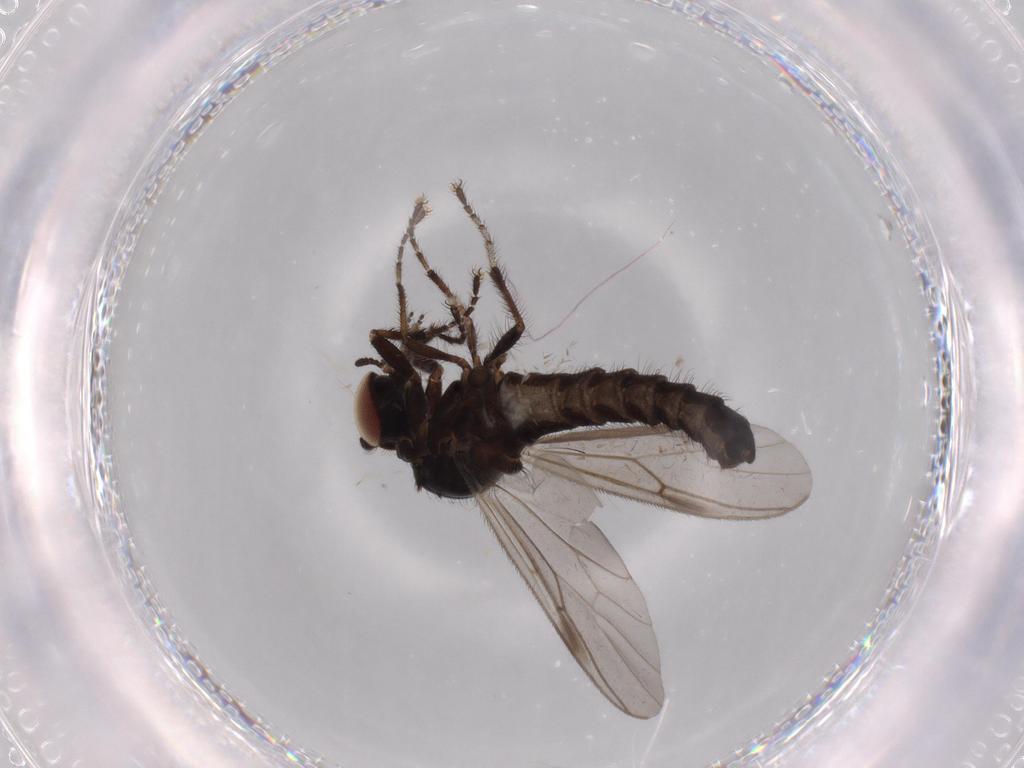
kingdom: Animalia
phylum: Arthropoda
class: Insecta
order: Diptera
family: Phoridae
